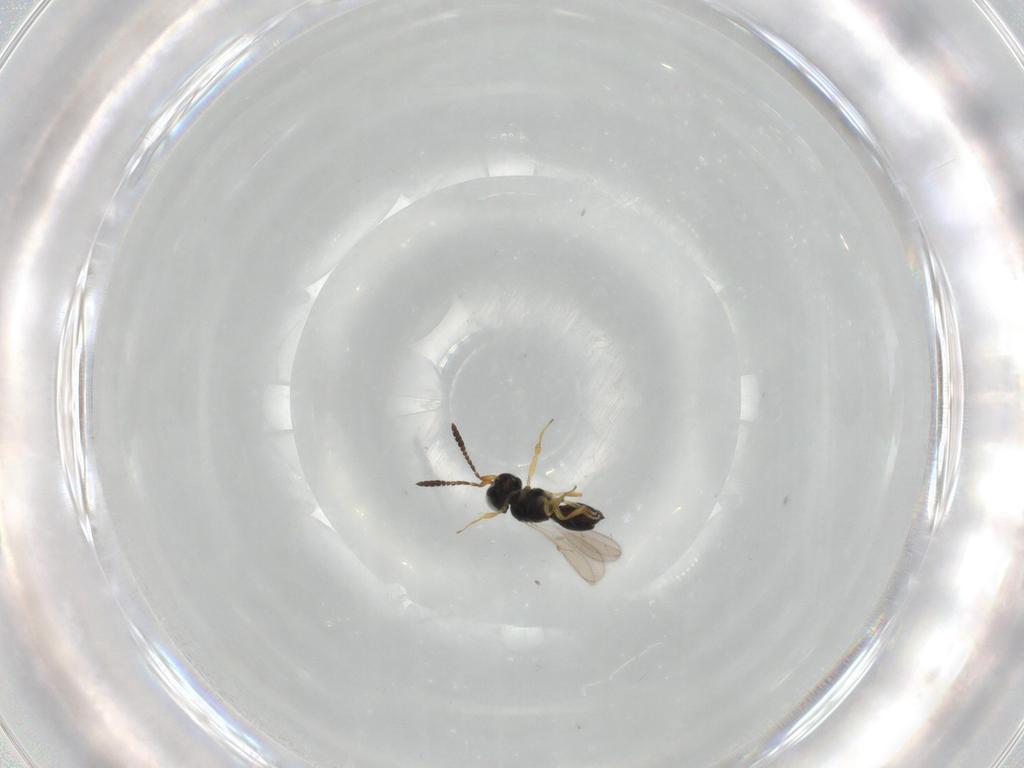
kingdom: Animalia
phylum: Arthropoda
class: Insecta
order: Hymenoptera
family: Scelionidae
